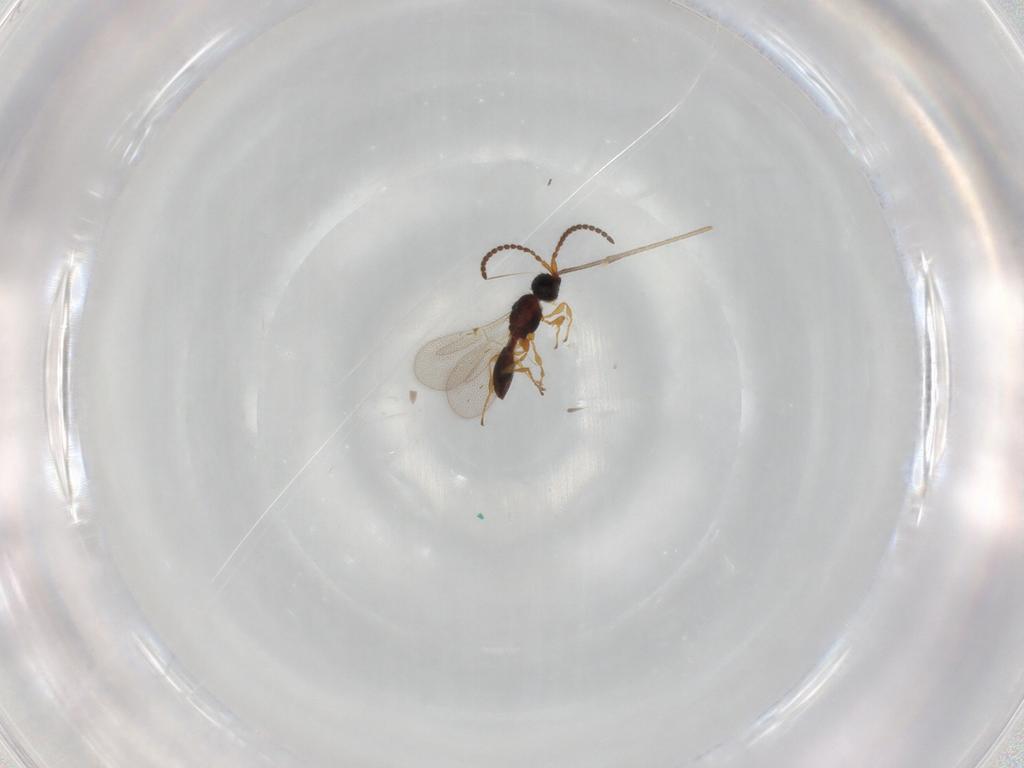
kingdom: Animalia
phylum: Arthropoda
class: Insecta
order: Hymenoptera
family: Diapriidae
